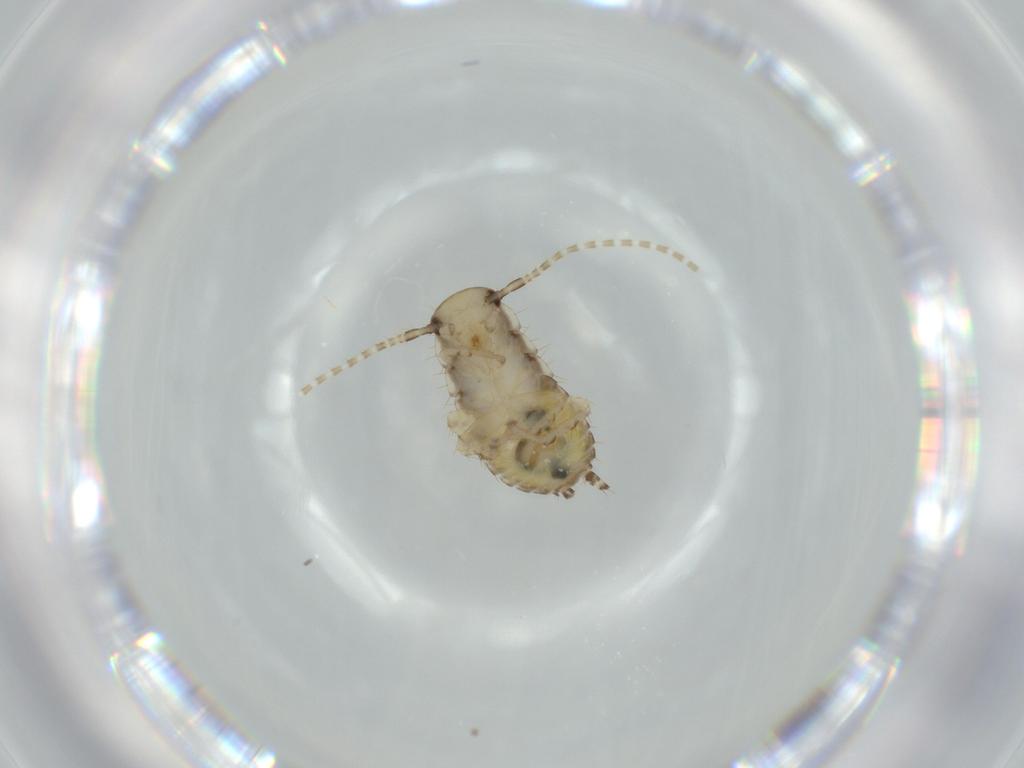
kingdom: Animalia
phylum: Arthropoda
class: Insecta
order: Blattodea
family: Ectobiidae
